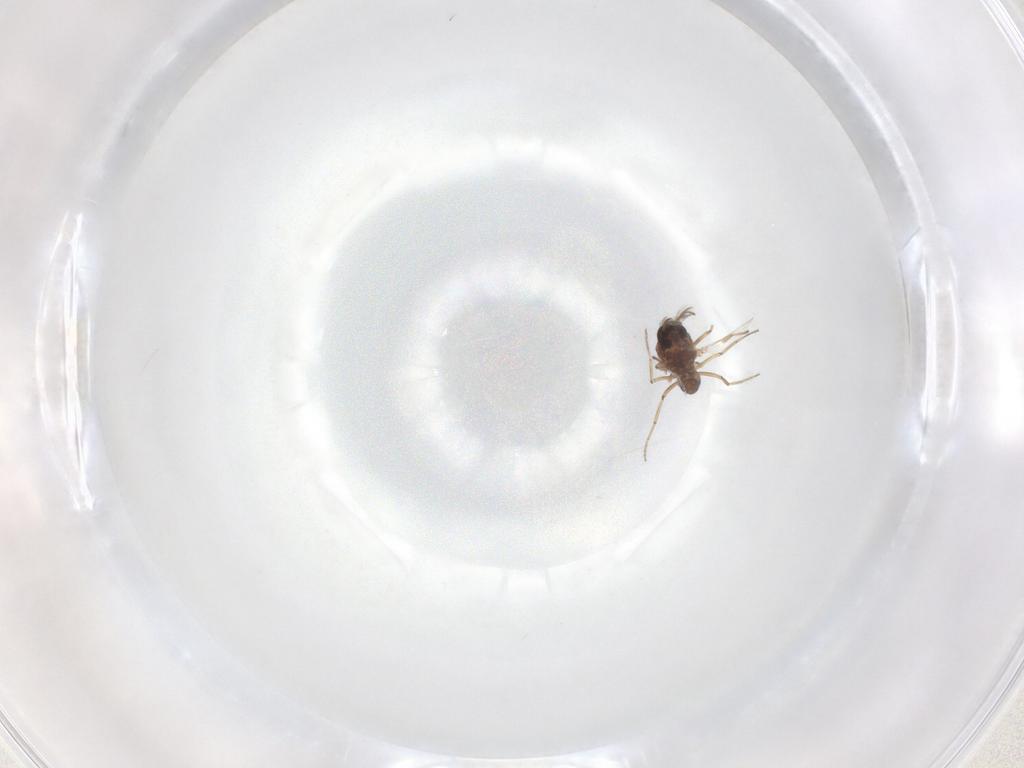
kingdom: Animalia
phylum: Arthropoda
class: Insecta
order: Diptera
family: Ceratopogonidae
